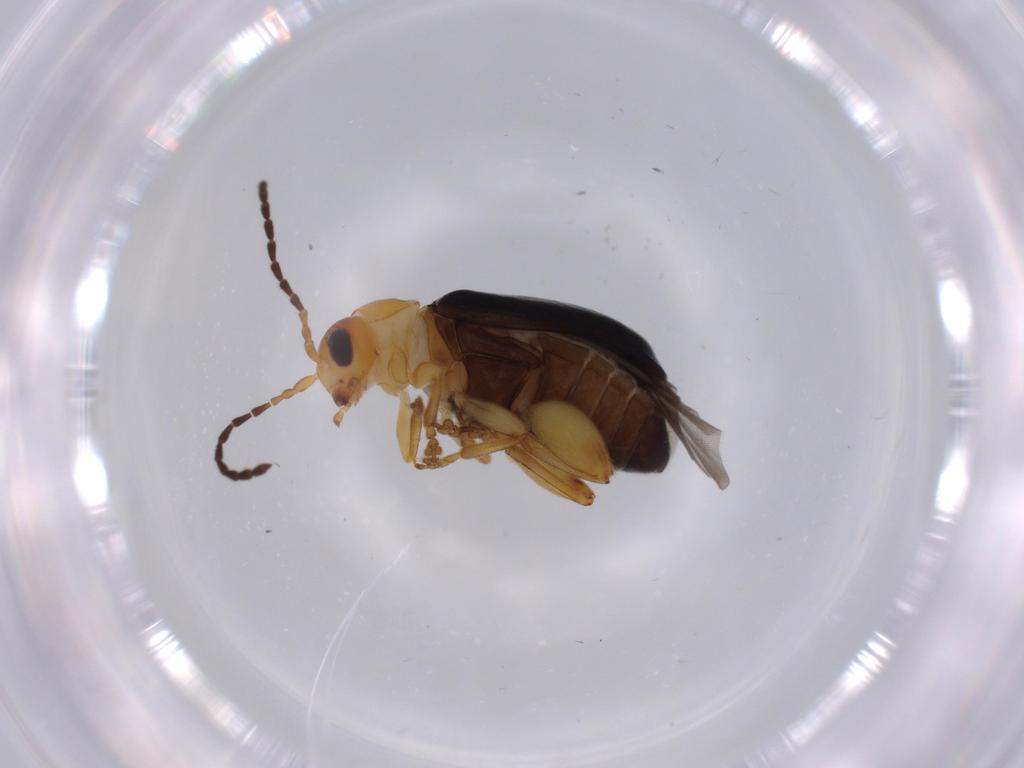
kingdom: Animalia
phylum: Arthropoda
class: Insecta
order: Coleoptera
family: Chrysomelidae
